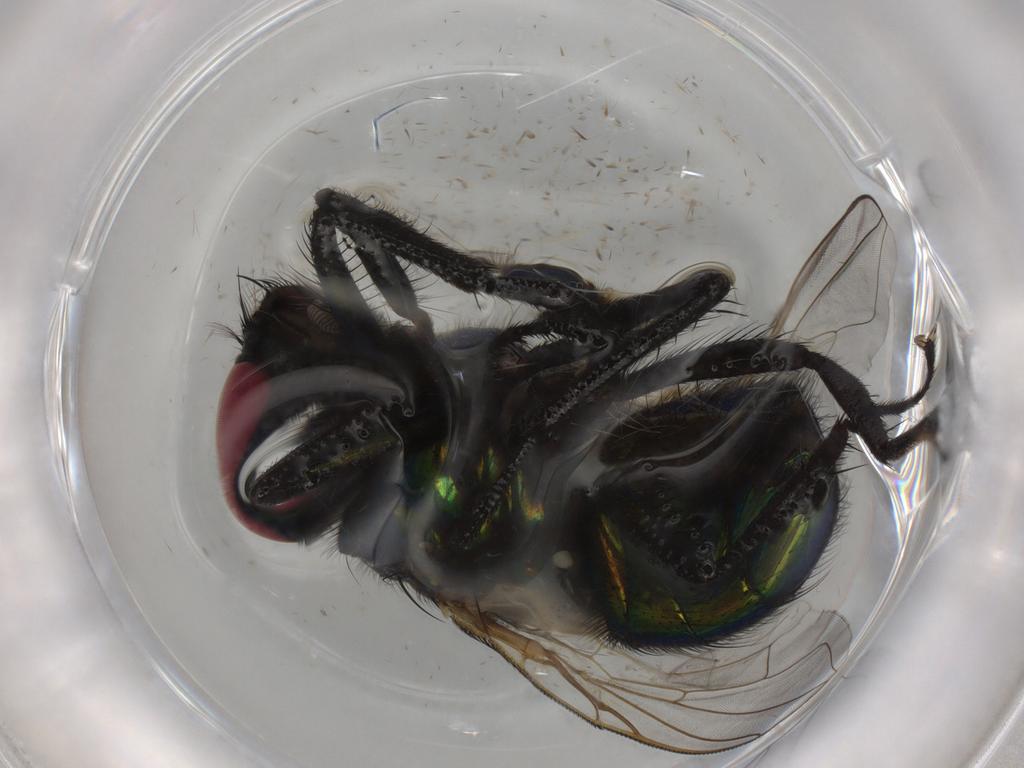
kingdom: Animalia
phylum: Arthropoda
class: Insecta
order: Diptera
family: Muscidae
